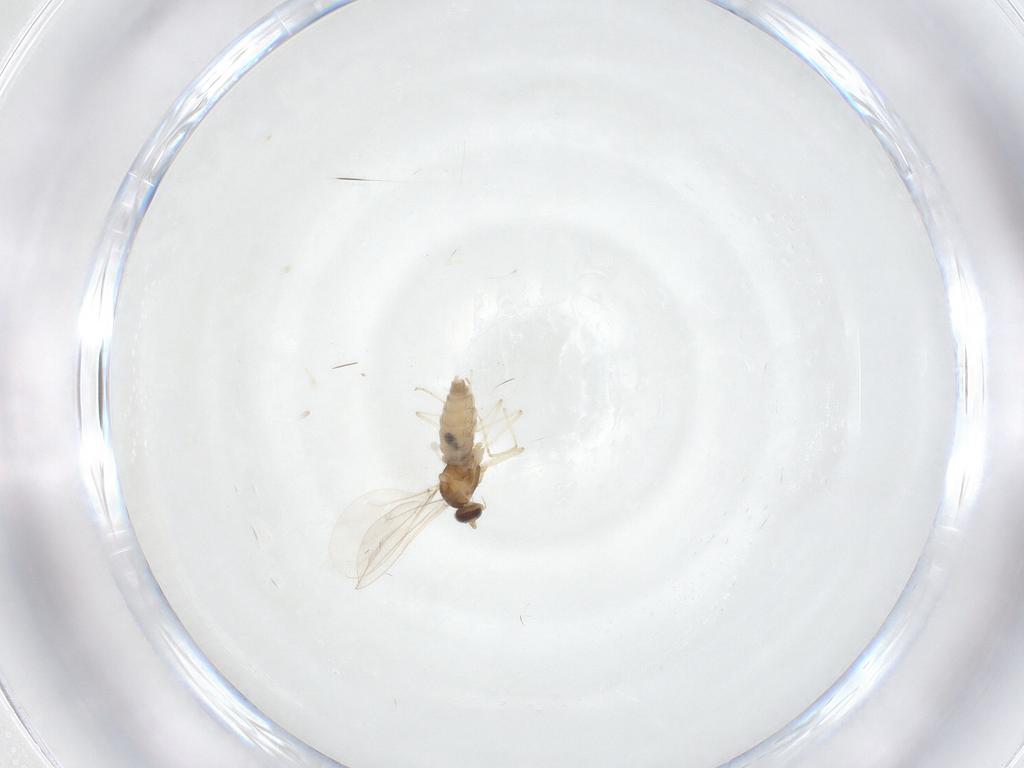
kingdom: Animalia
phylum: Arthropoda
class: Insecta
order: Diptera
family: Cecidomyiidae
